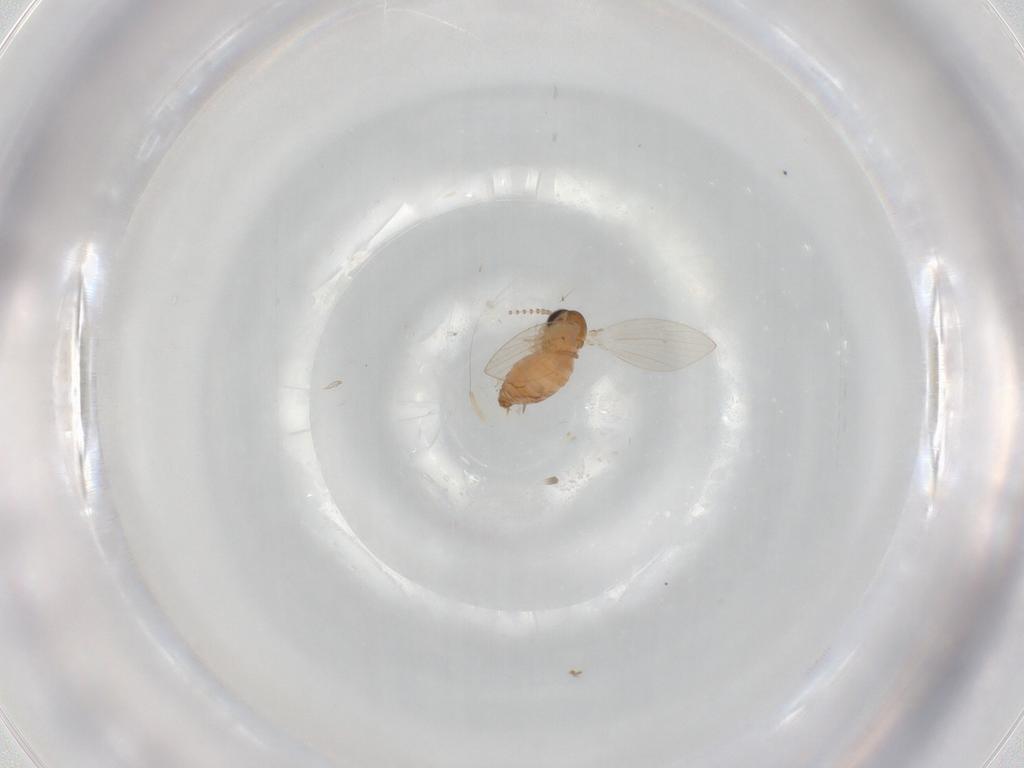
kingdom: Animalia
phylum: Arthropoda
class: Insecta
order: Diptera
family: Psychodidae
